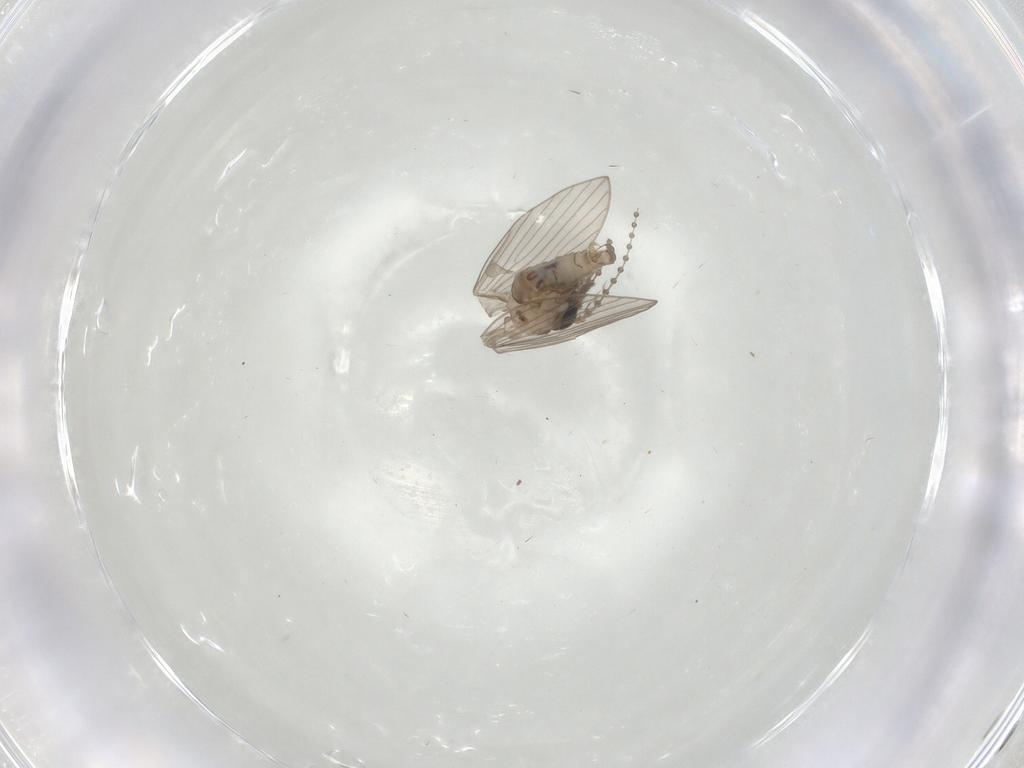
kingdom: Animalia
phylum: Arthropoda
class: Insecta
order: Diptera
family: Psychodidae
